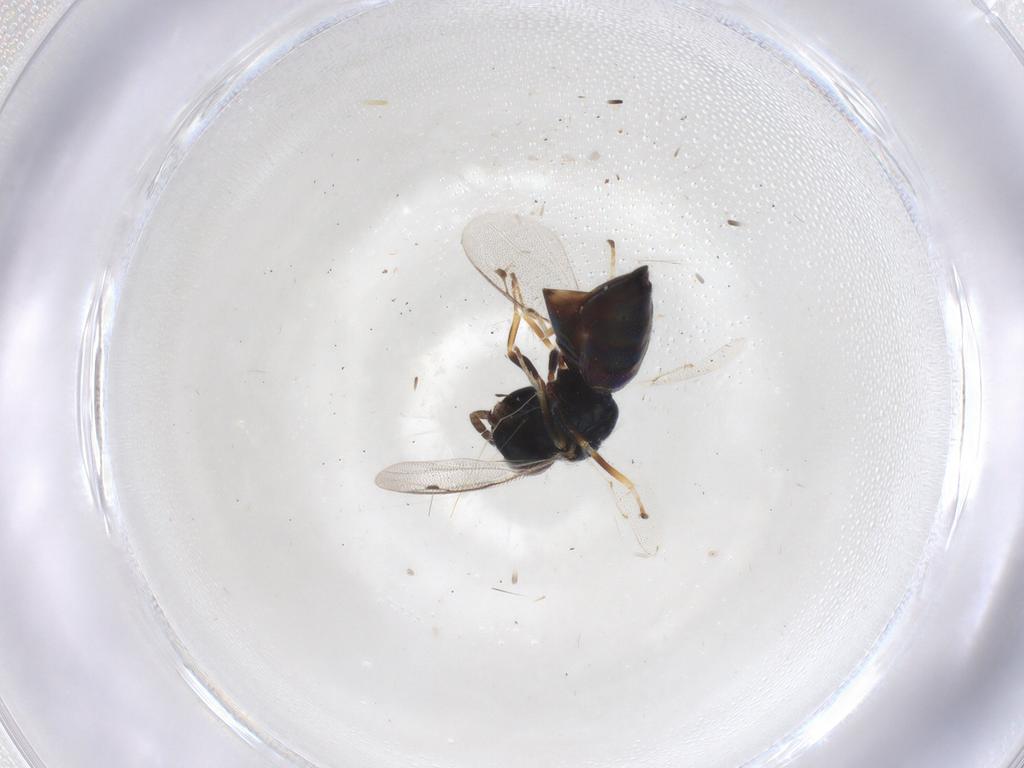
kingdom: Animalia
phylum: Arthropoda
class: Insecta
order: Hymenoptera
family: Pteromalidae
